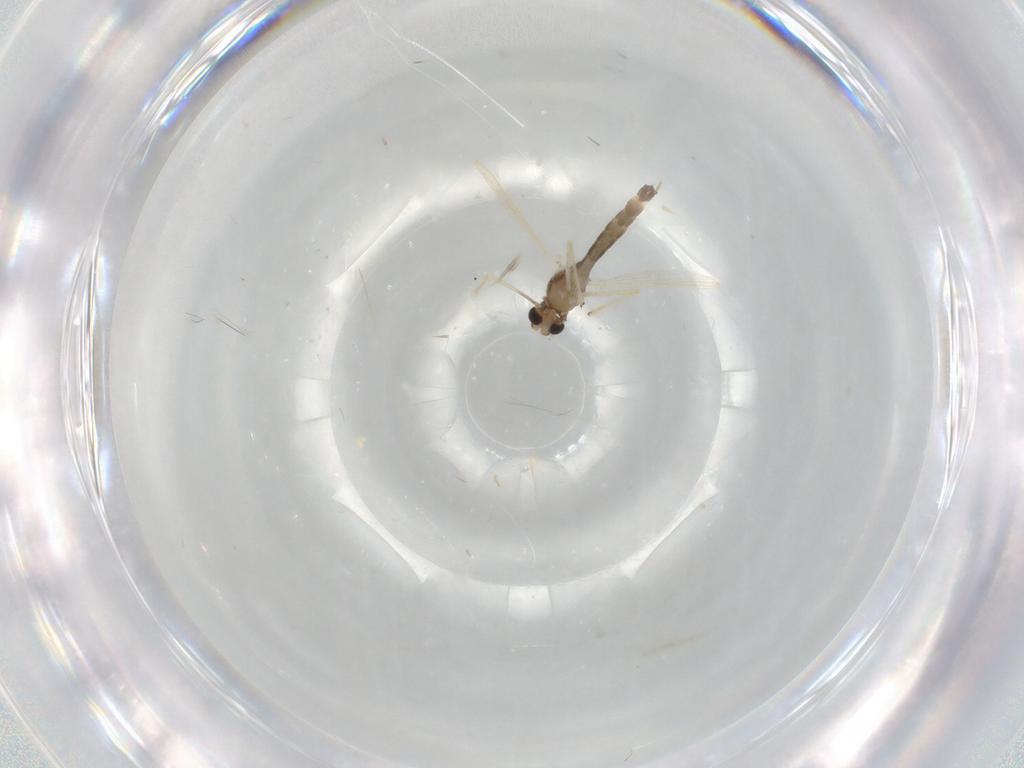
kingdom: Animalia
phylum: Arthropoda
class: Insecta
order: Diptera
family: Chironomidae
